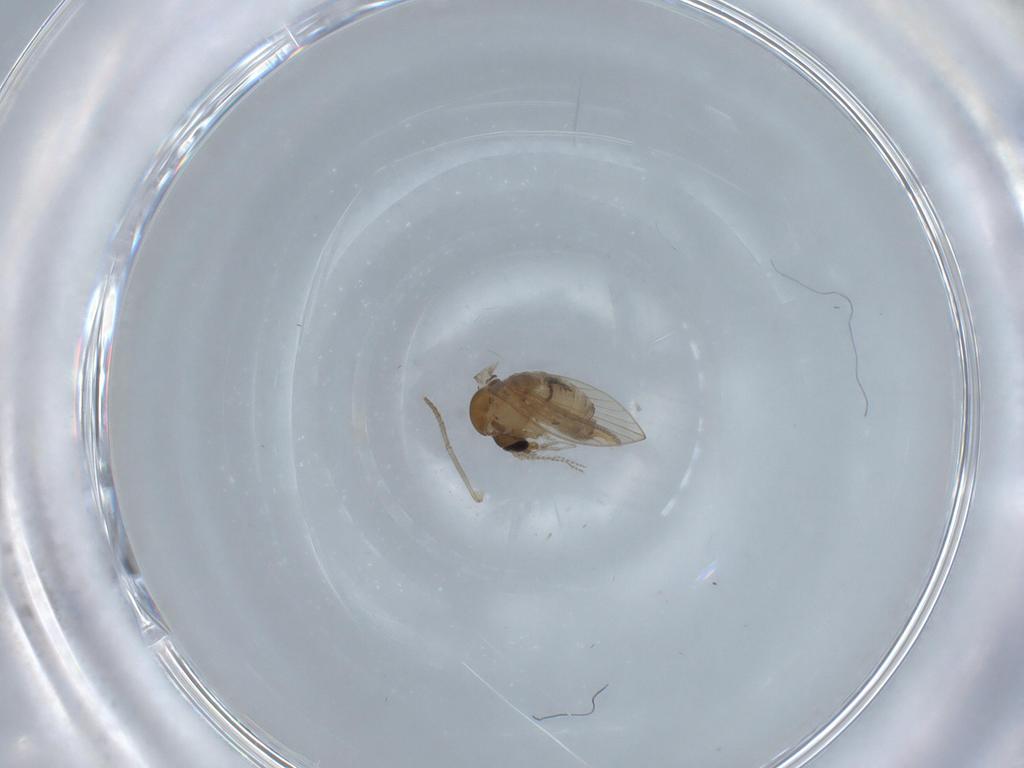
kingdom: Animalia
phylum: Arthropoda
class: Insecta
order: Diptera
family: Psychodidae
